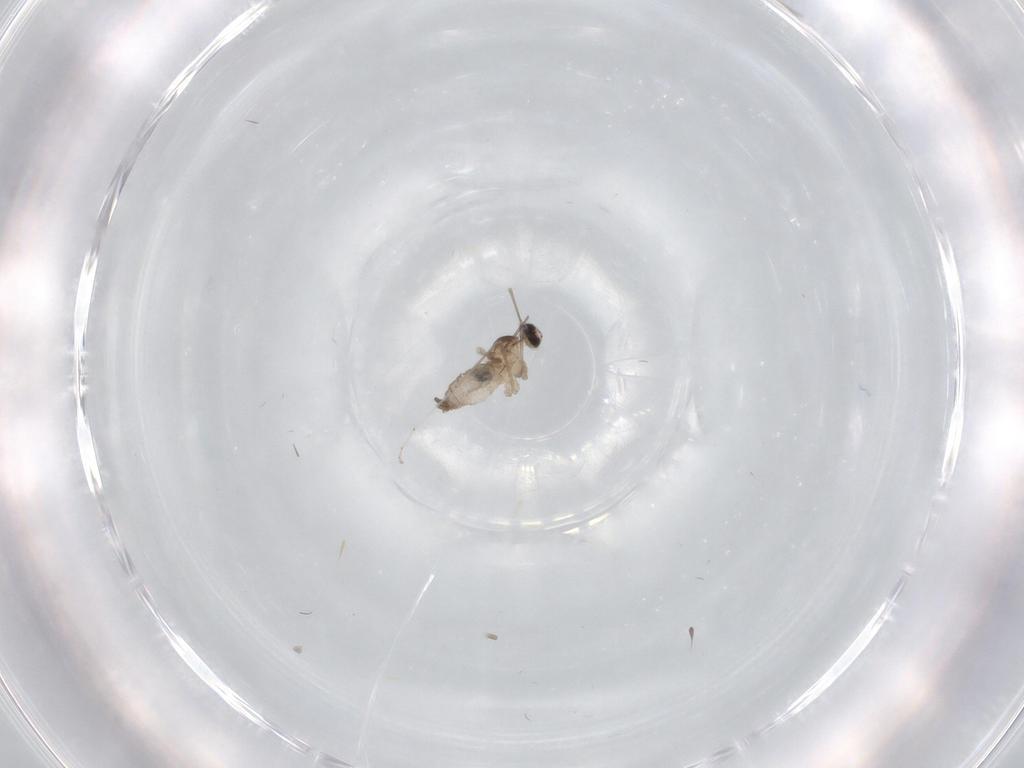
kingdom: Animalia
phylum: Arthropoda
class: Insecta
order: Diptera
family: Cecidomyiidae
